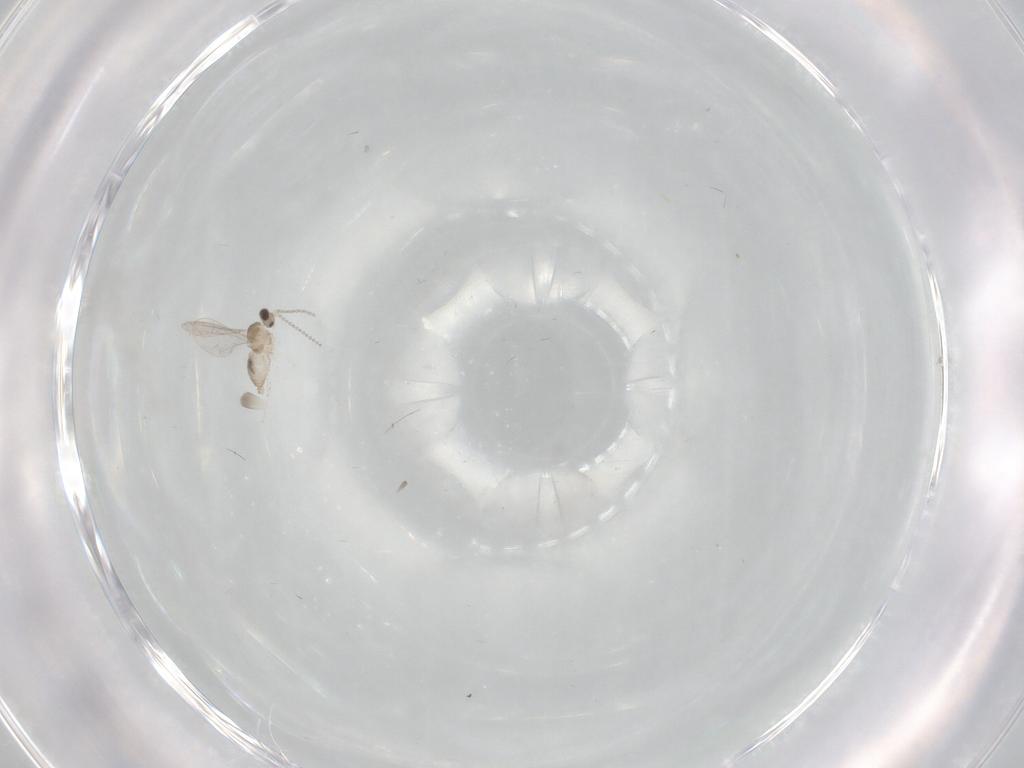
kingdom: Animalia
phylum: Arthropoda
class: Insecta
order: Diptera
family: Cecidomyiidae
